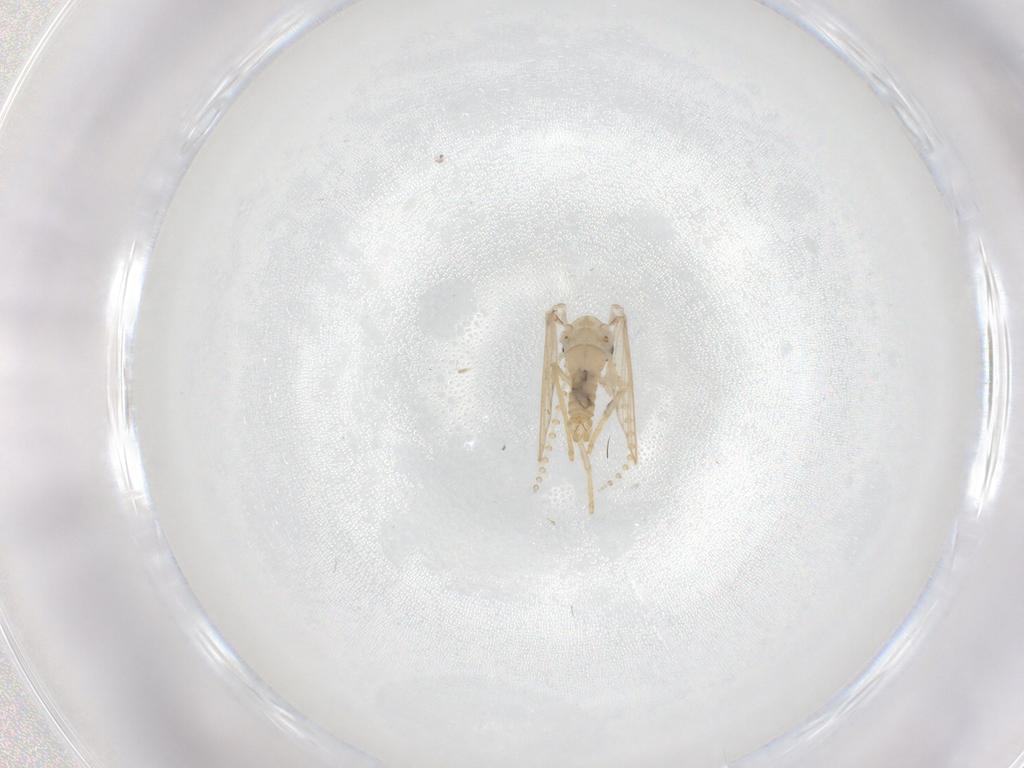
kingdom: Animalia
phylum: Arthropoda
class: Insecta
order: Diptera
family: Psychodidae
